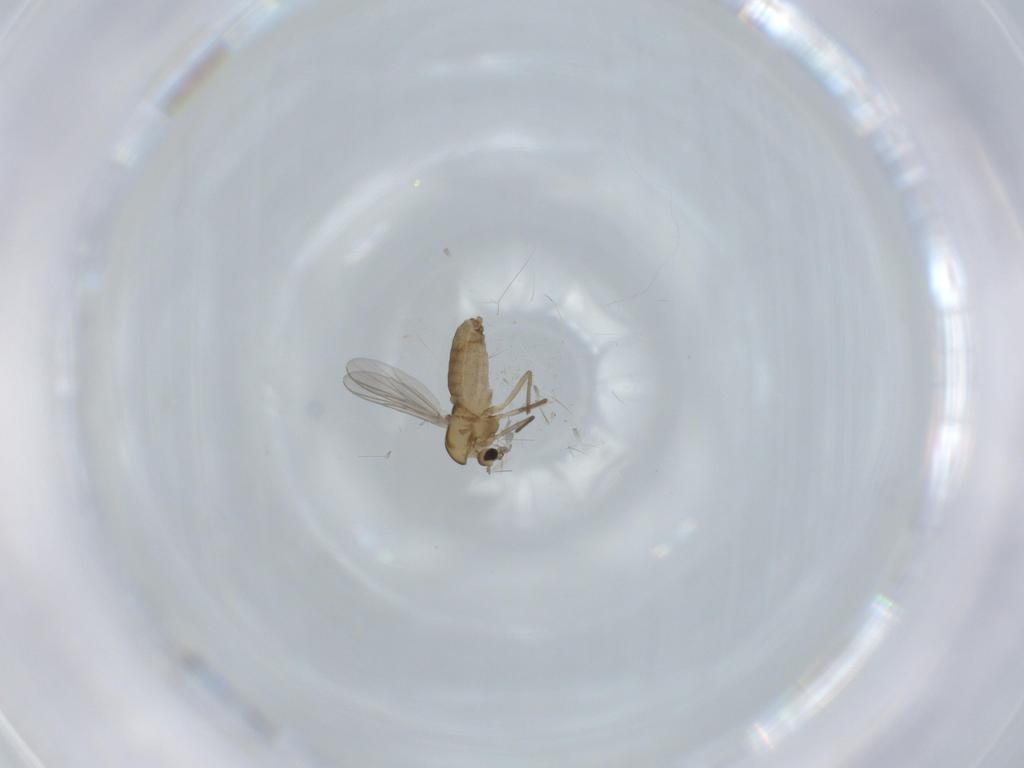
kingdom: Animalia
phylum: Arthropoda
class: Insecta
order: Diptera
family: Chironomidae
